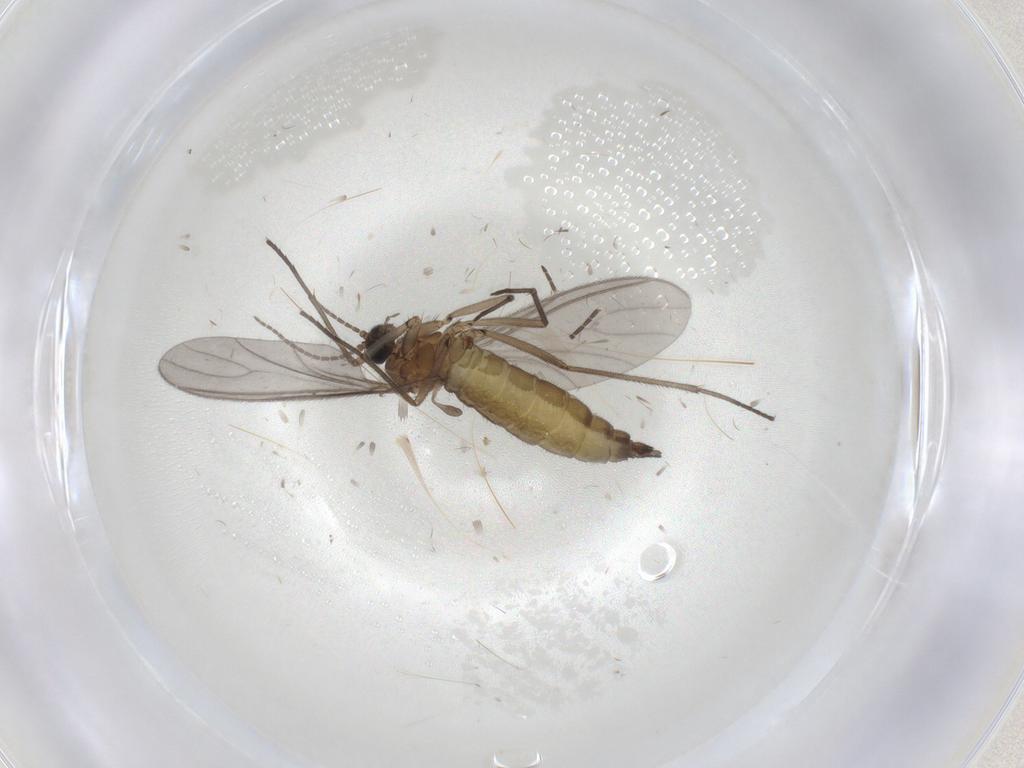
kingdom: Animalia
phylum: Arthropoda
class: Insecta
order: Diptera
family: Sciaridae
